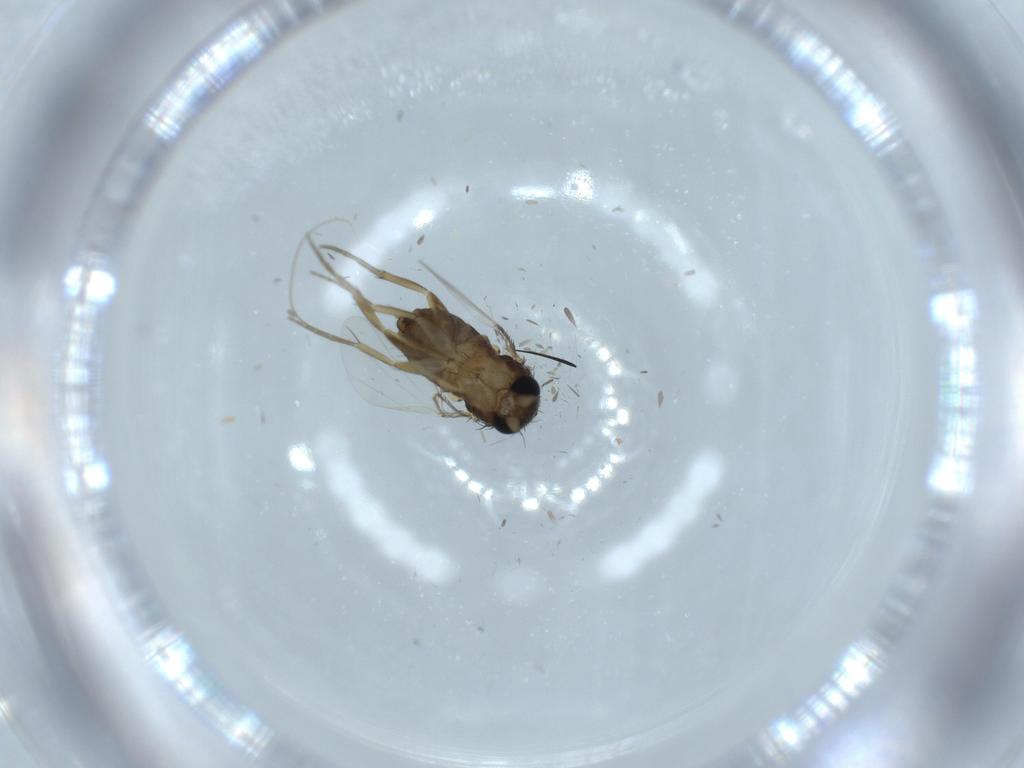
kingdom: Animalia
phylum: Arthropoda
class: Insecta
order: Diptera
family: Phoridae
